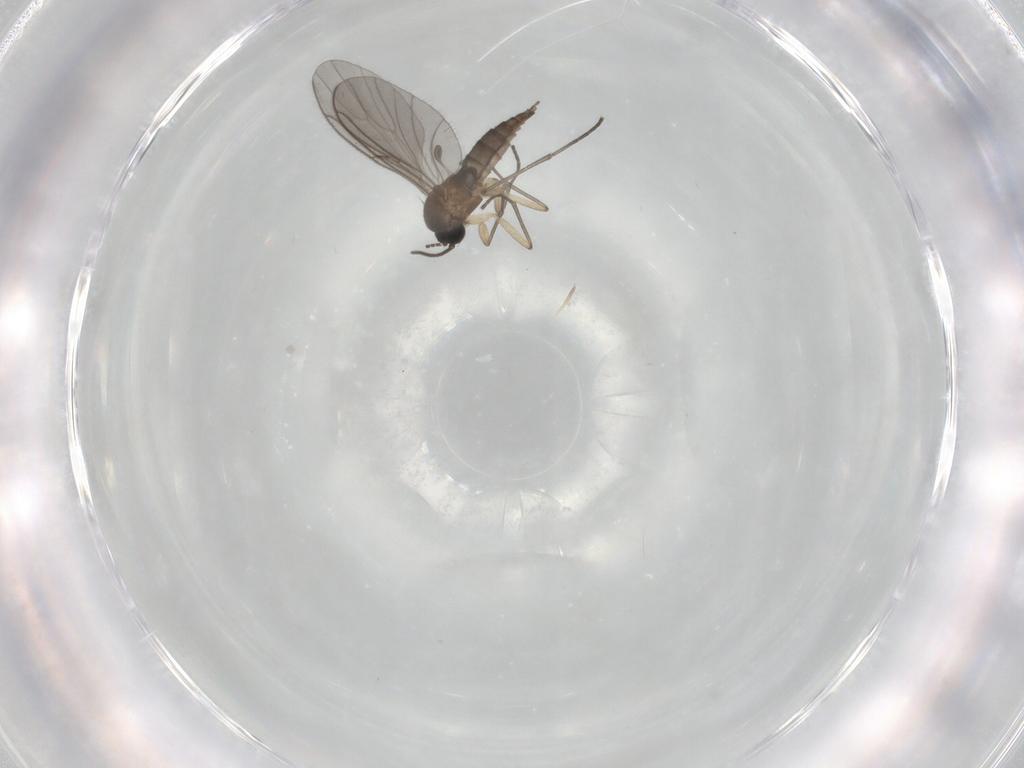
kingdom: Animalia
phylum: Arthropoda
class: Insecta
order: Diptera
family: Sciaridae
